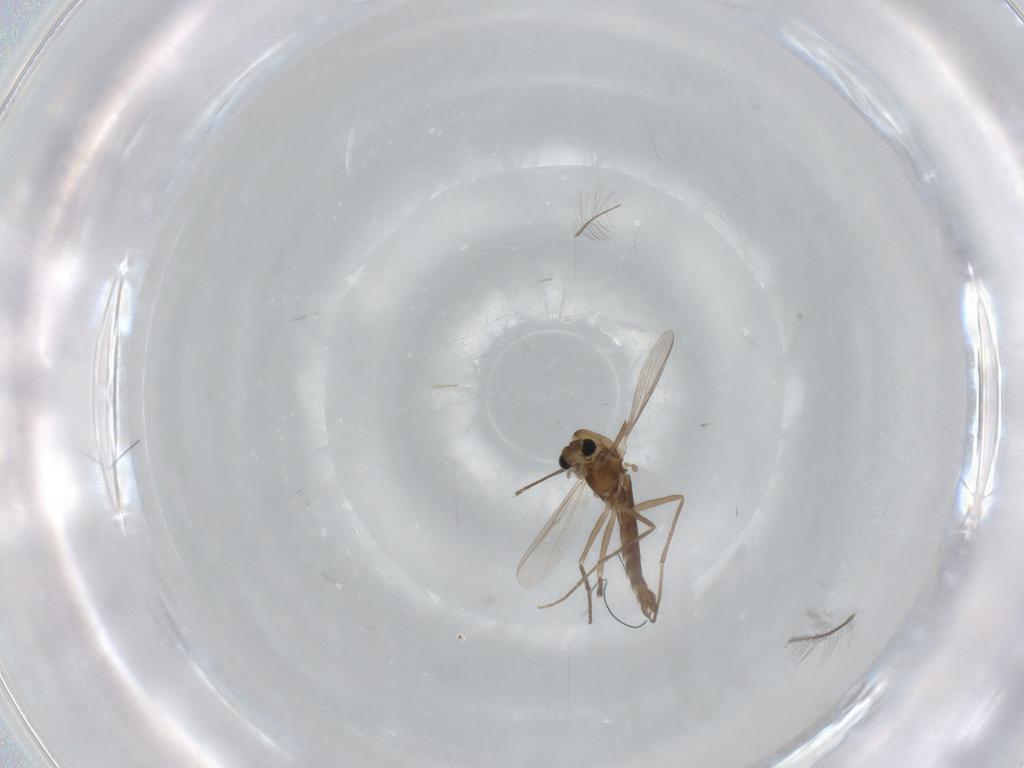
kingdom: Animalia
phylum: Arthropoda
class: Insecta
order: Diptera
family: Chironomidae
